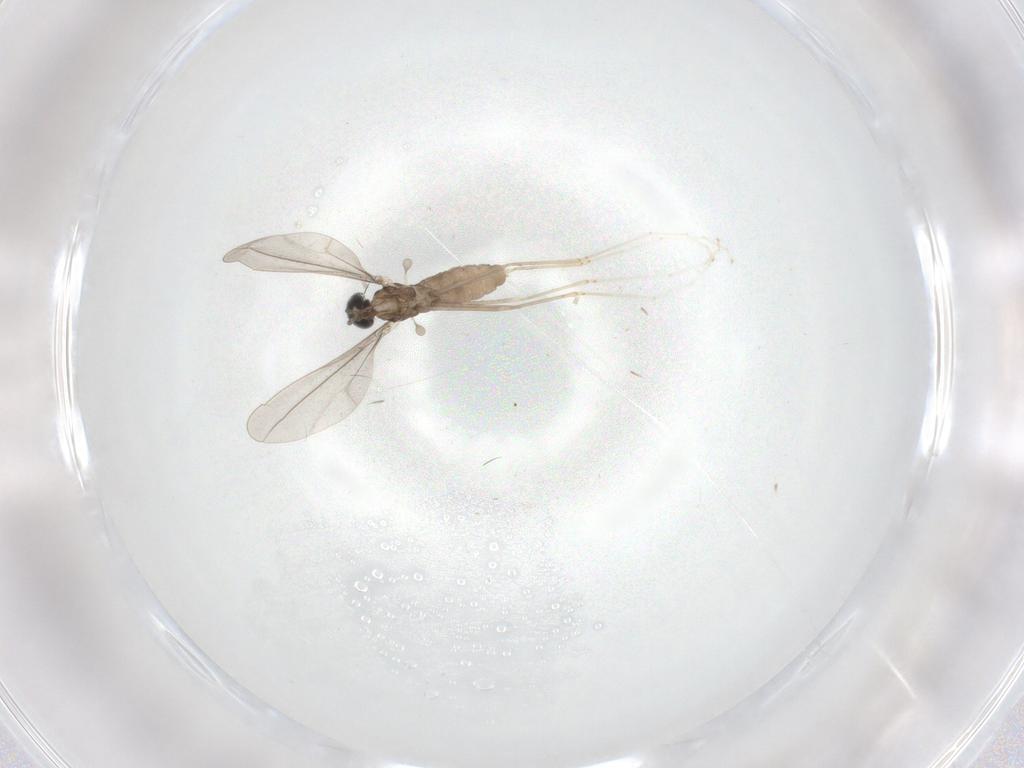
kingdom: Animalia
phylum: Arthropoda
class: Insecta
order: Diptera
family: Cecidomyiidae
